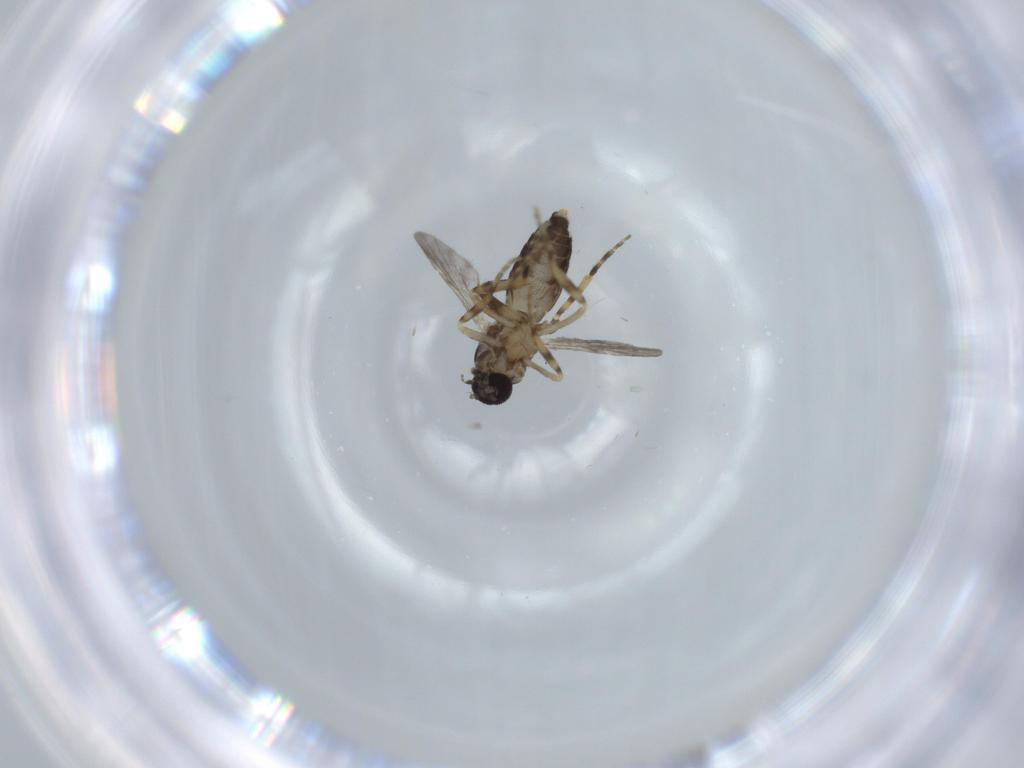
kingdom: Animalia
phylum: Arthropoda
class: Insecta
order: Diptera
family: Ceratopogonidae
